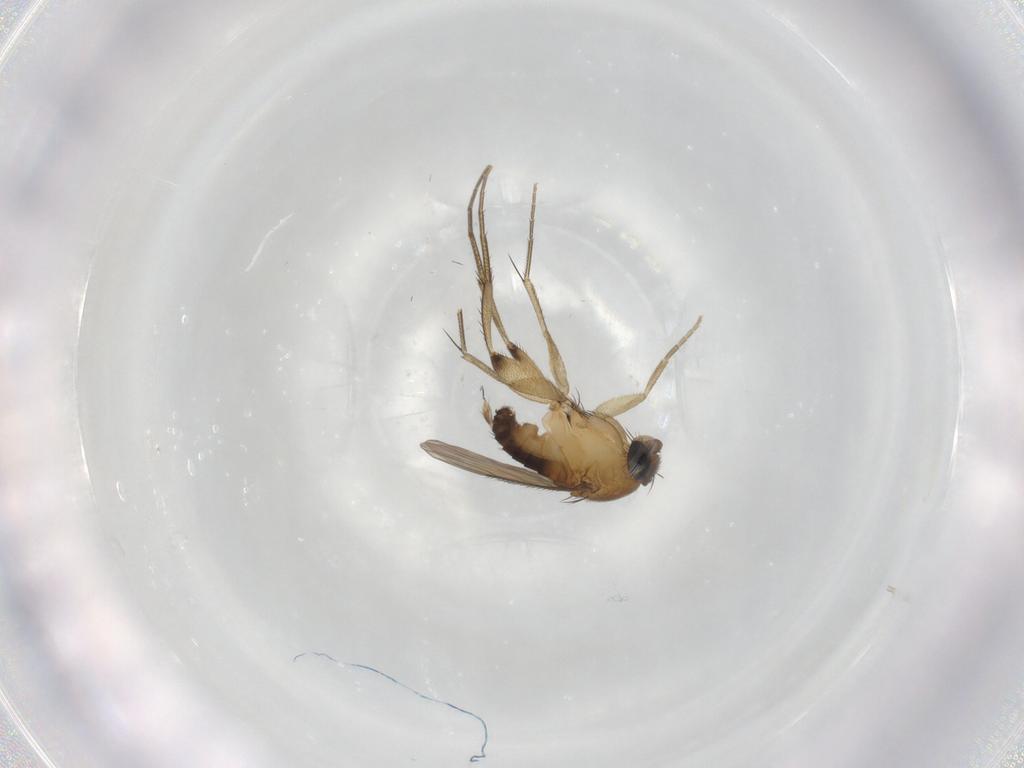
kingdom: Animalia
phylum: Arthropoda
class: Insecta
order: Diptera
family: Phoridae
